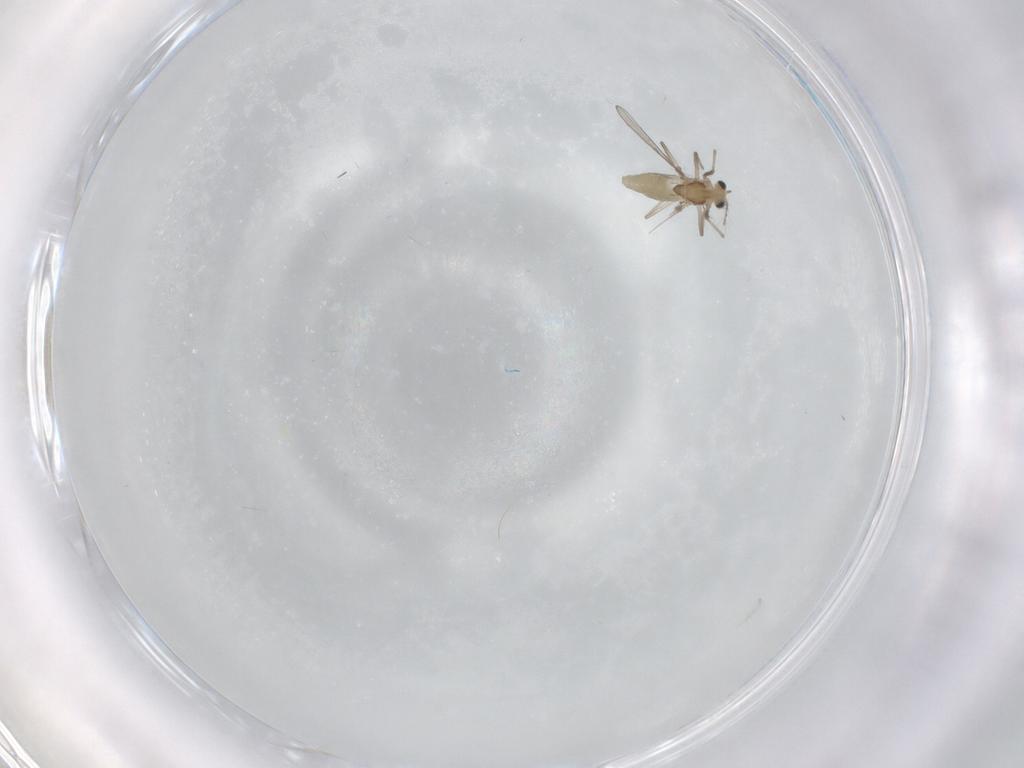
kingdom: Animalia
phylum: Arthropoda
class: Insecta
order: Diptera
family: Chironomidae
